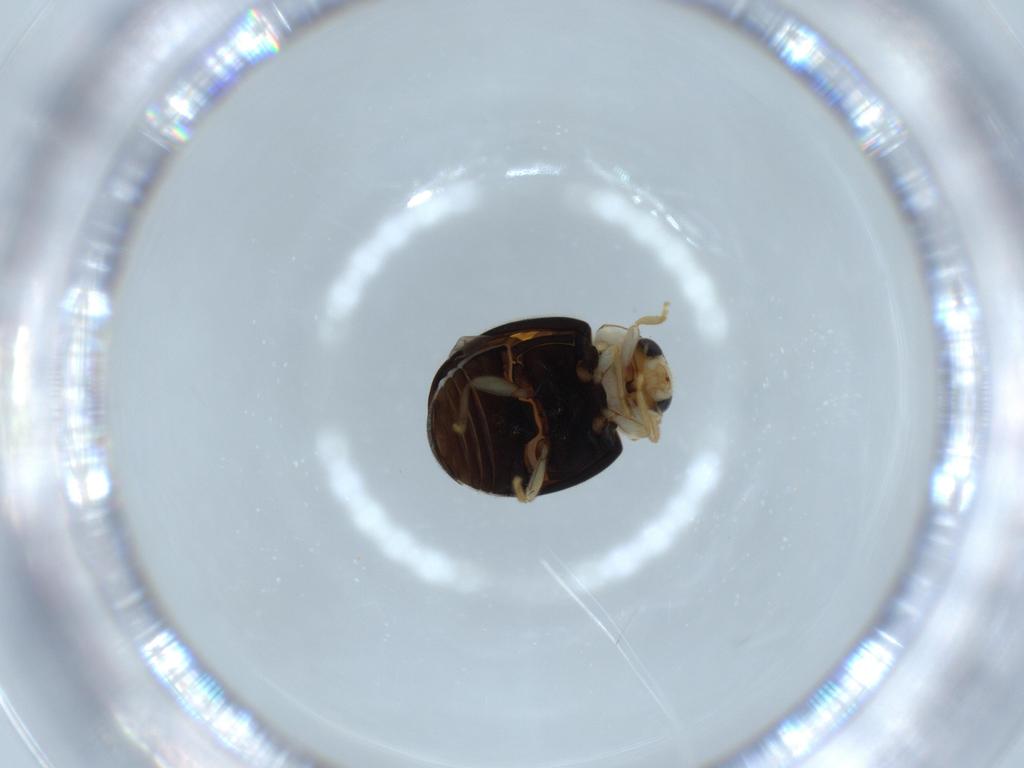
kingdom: Animalia
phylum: Arthropoda
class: Insecta
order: Coleoptera
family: Coccinellidae
